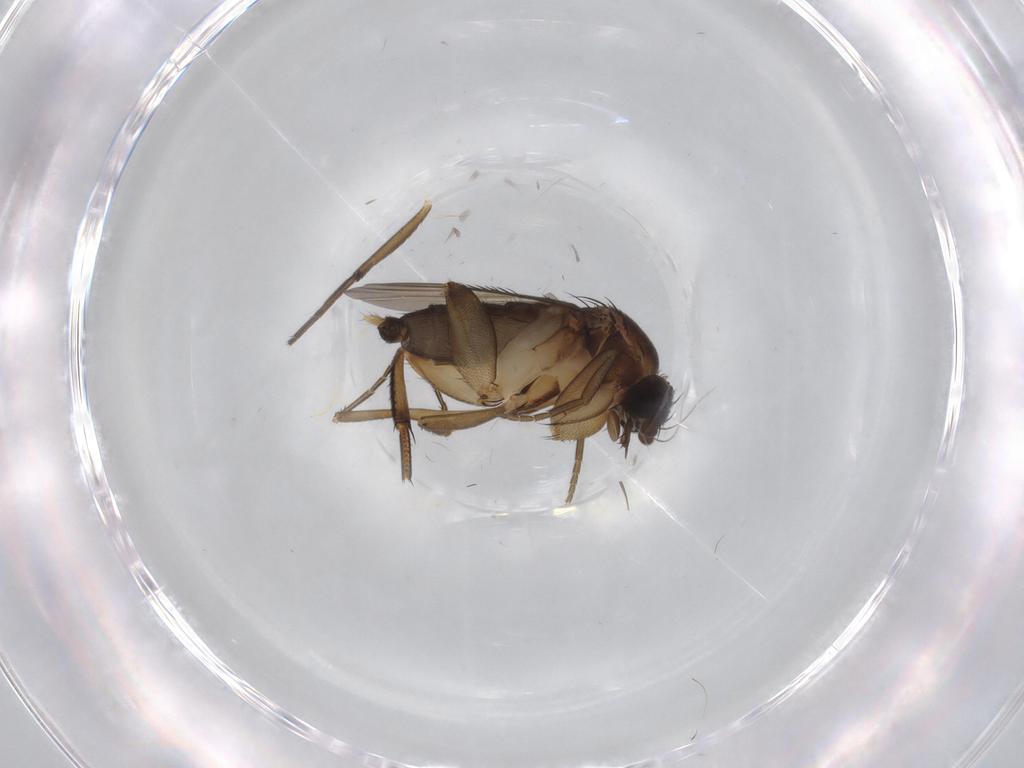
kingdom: Animalia
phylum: Arthropoda
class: Insecta
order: Diptera
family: Phoridae
